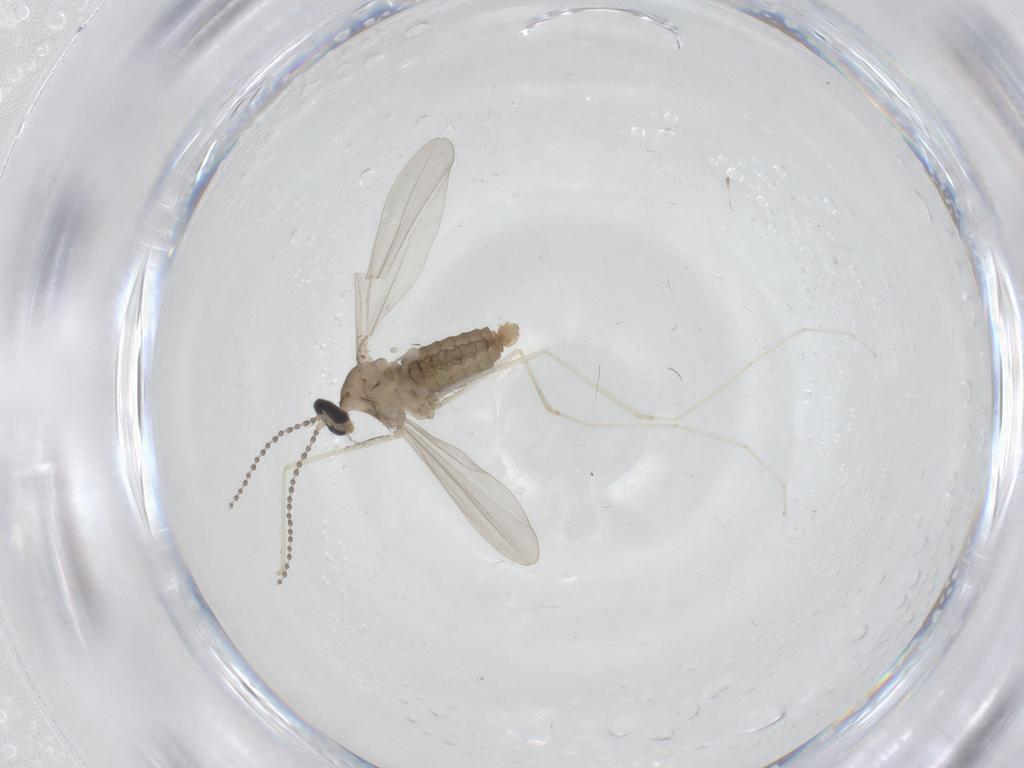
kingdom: Animalia
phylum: Arthropoda
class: Insecta
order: Diptera
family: Cecidomyiidae
